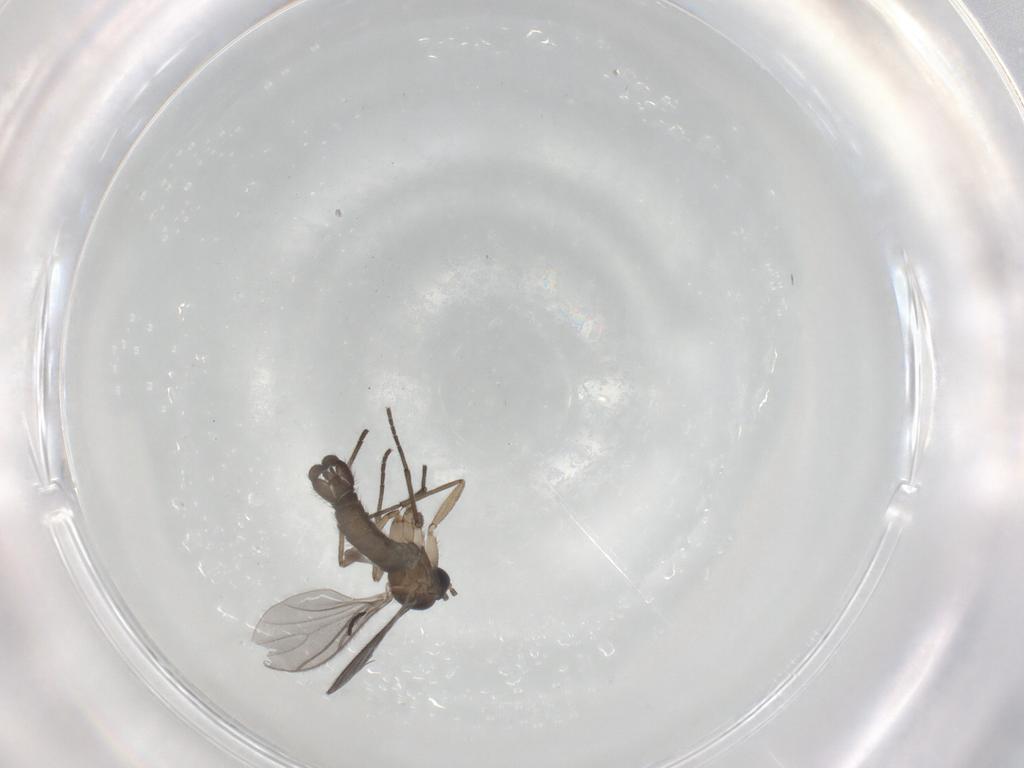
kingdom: Animalia
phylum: Arthropoda
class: Insecta
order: Diptera
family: Sciaridae
